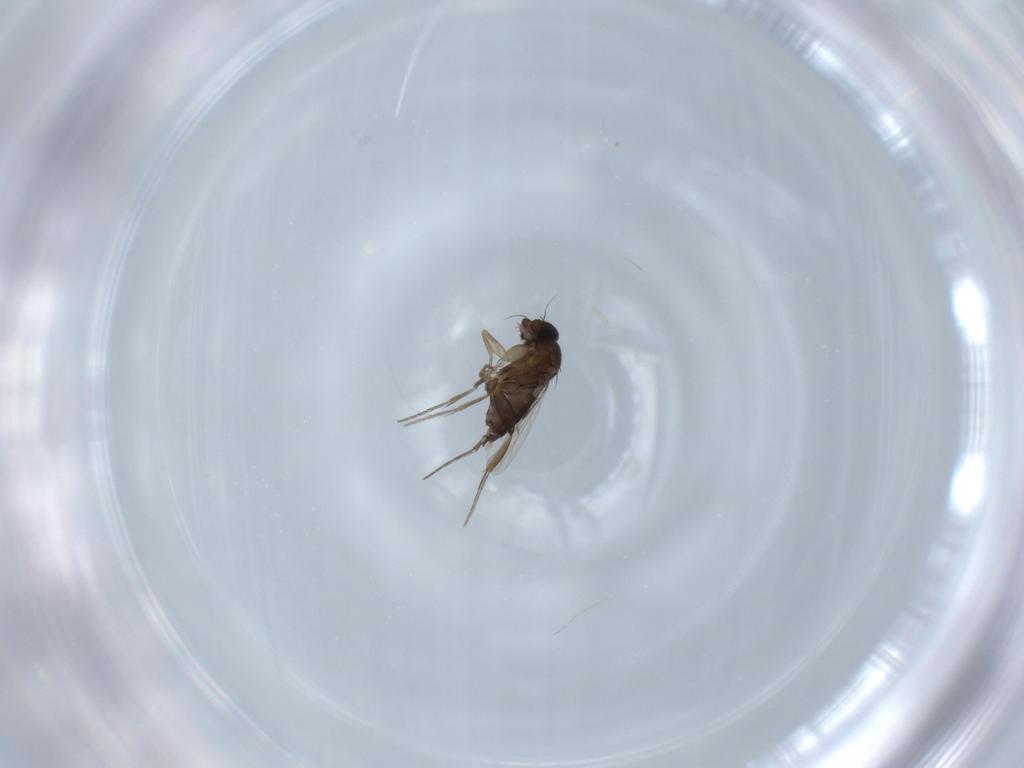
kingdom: Animalia
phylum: Arthropoda
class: Insecta
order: Diptera
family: Phoridae
